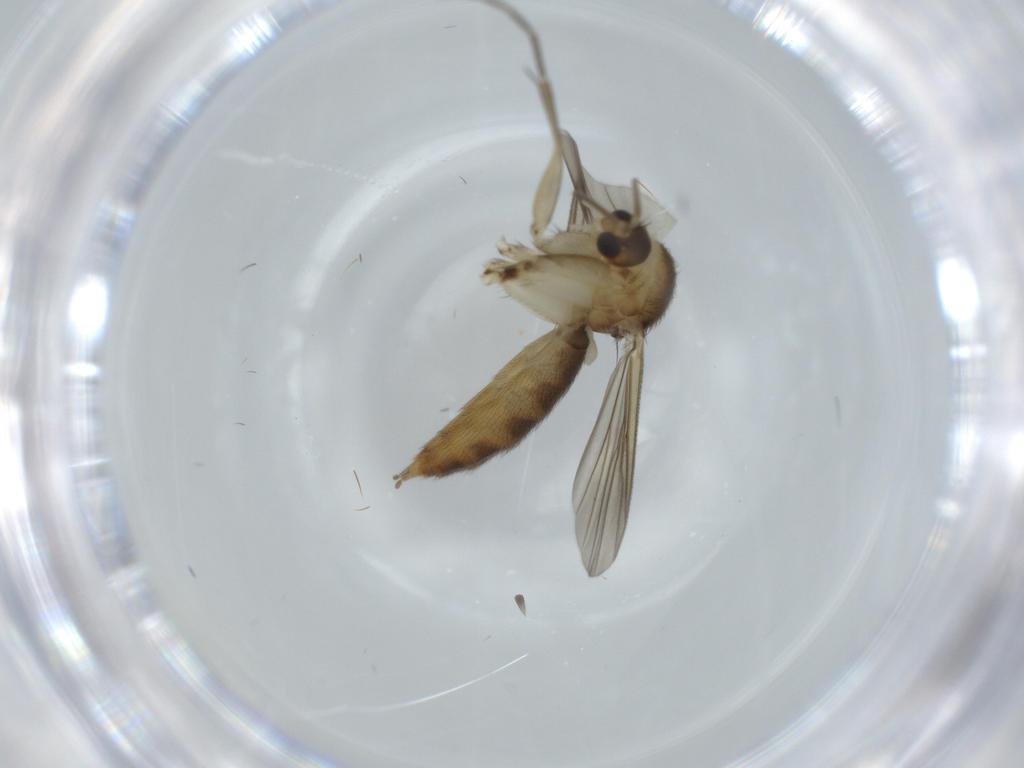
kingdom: Animalia
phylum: Arthropoda
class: Insecta
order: Diptera
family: Mycetophilidae
